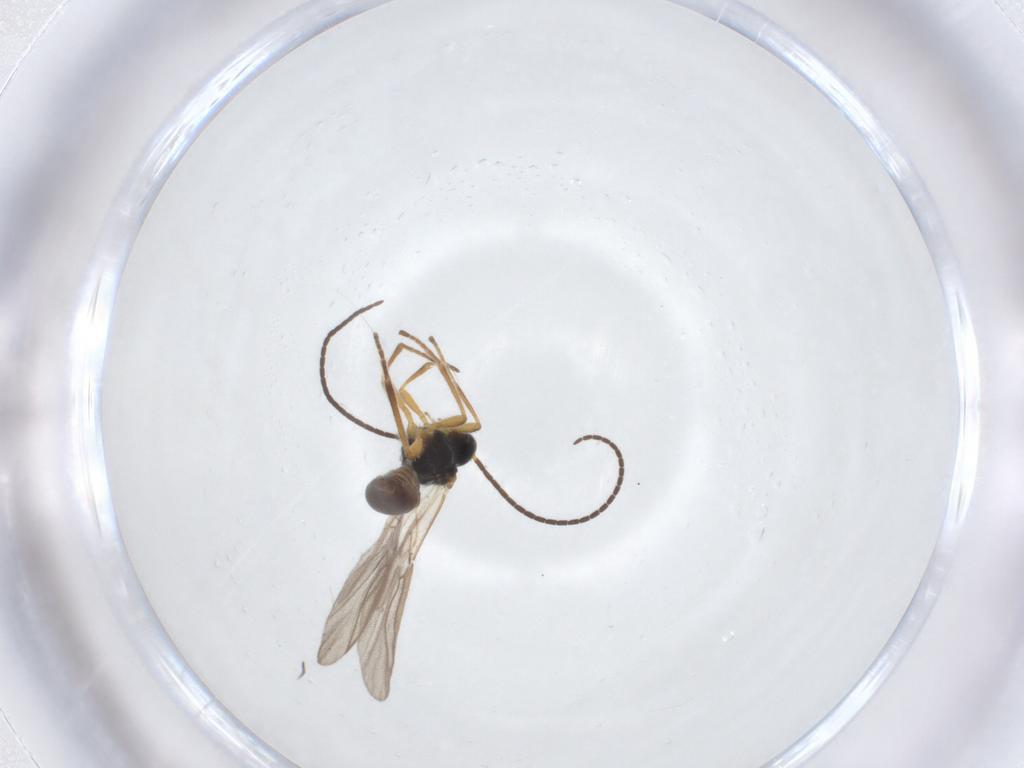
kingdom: Animalia
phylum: Arthropoda
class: Insecta
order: Hymenoptera
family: Braconidae
